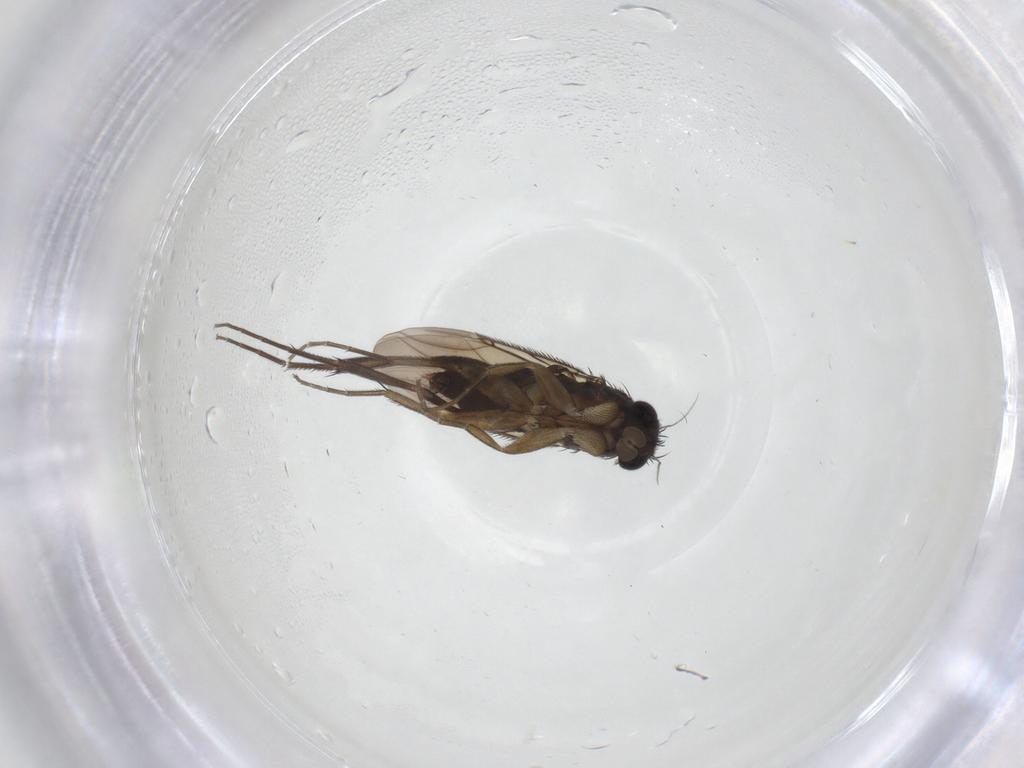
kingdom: Animalia
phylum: Arthropoda
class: Insecta
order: Diptera
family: Phoridae
